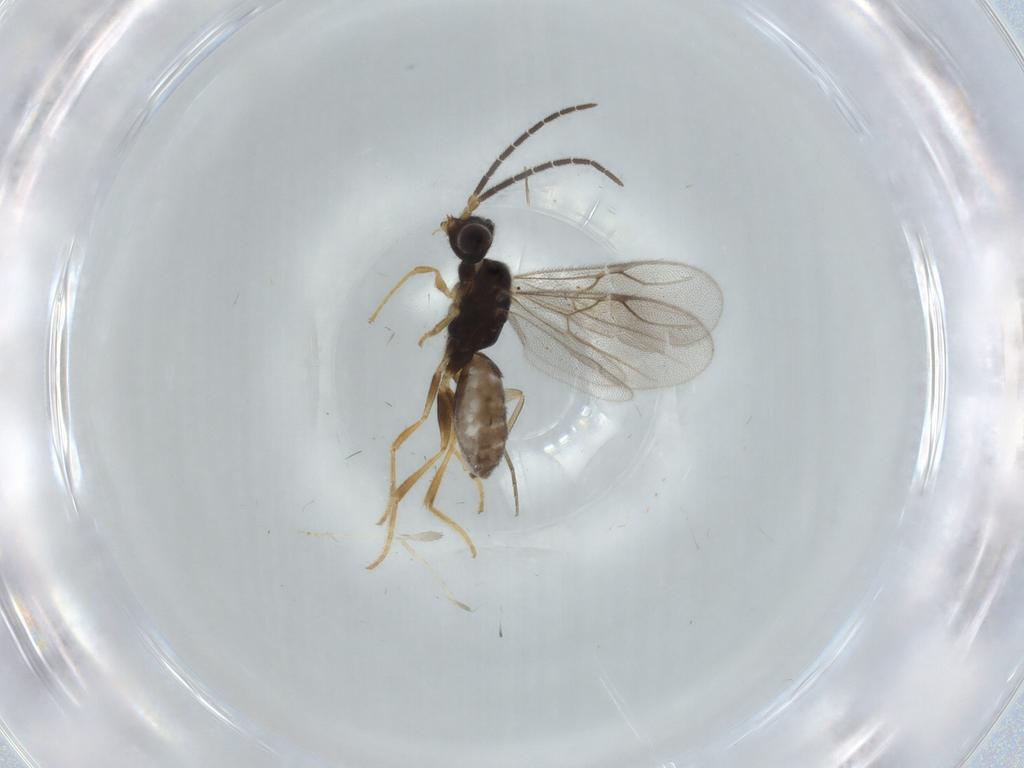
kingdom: Animalia
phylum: Arthropoda
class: Insecta
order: Hymenoptera
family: Dryinidae
